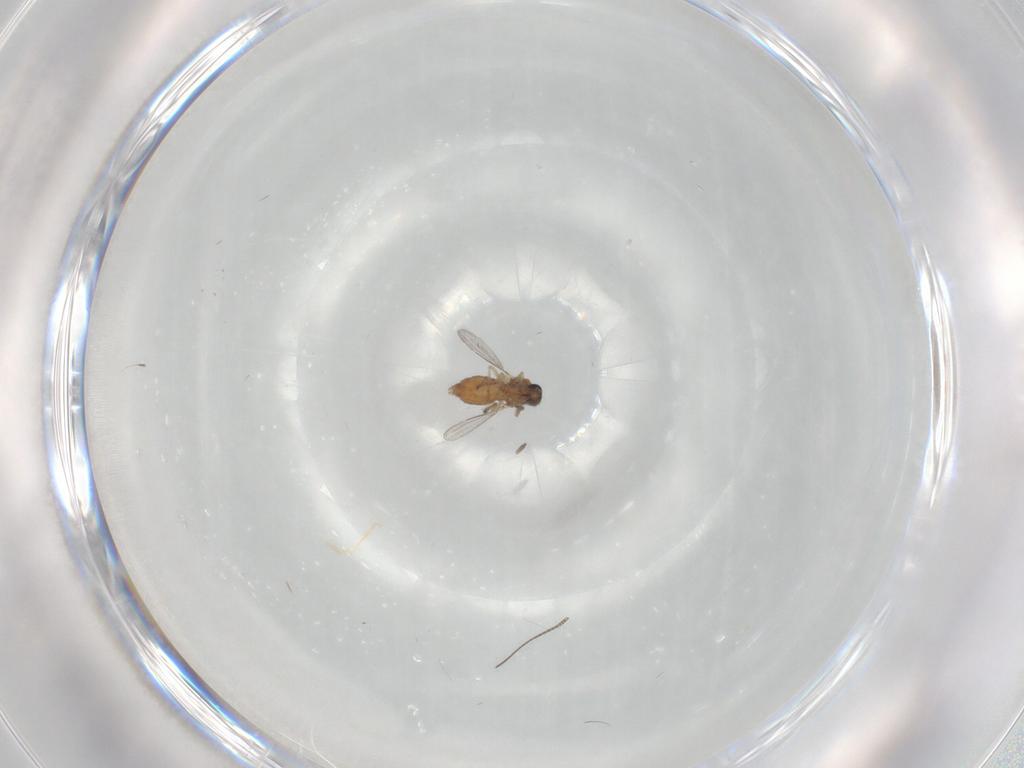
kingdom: Animalia
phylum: Arthropoda
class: Insecta
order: Diptera
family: Ceratopogonidae
